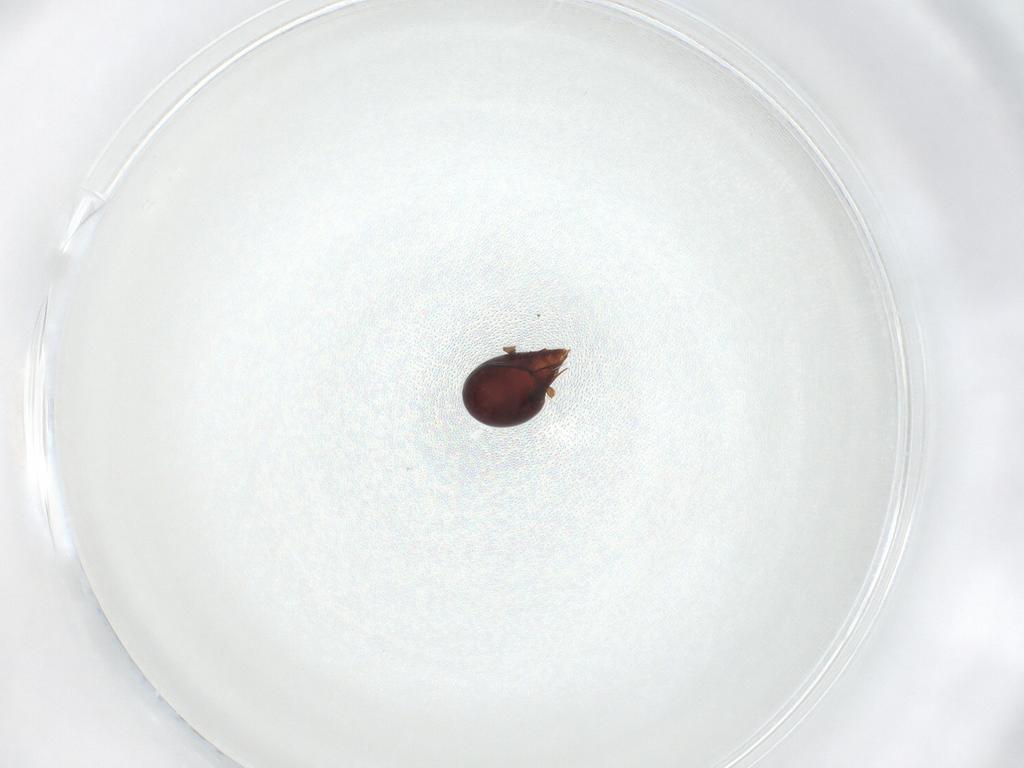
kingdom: Animalia
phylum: Arthropoda
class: Arachnida
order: Sarcoptiformes
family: Ceratoppiidae
